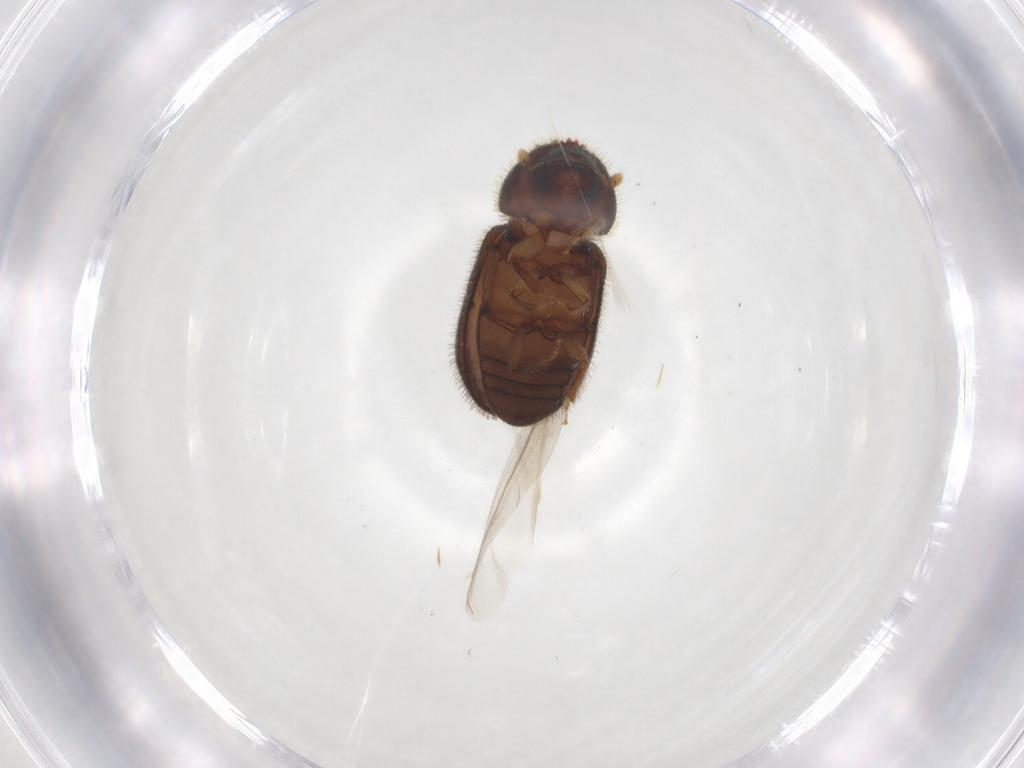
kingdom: Animalia
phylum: Arthropoda
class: Insecta
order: Coleoptera
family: Curculionidae
